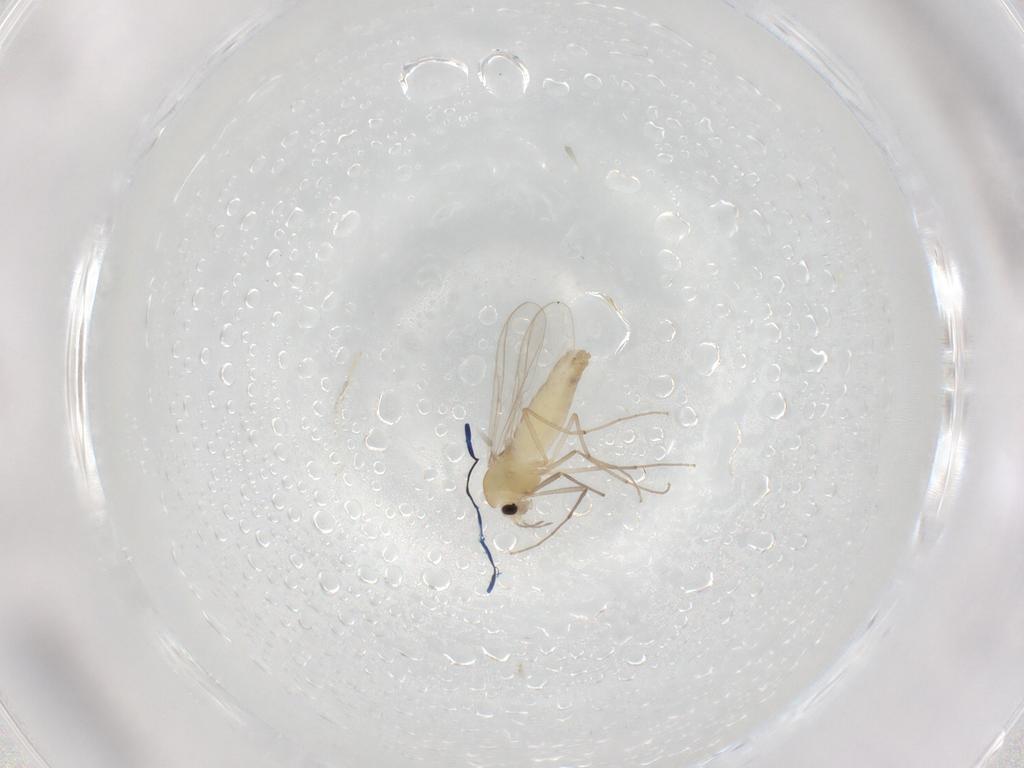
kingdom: Animalia
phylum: Arthropoda
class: Insecta
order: Diptera
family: Chironomidae
